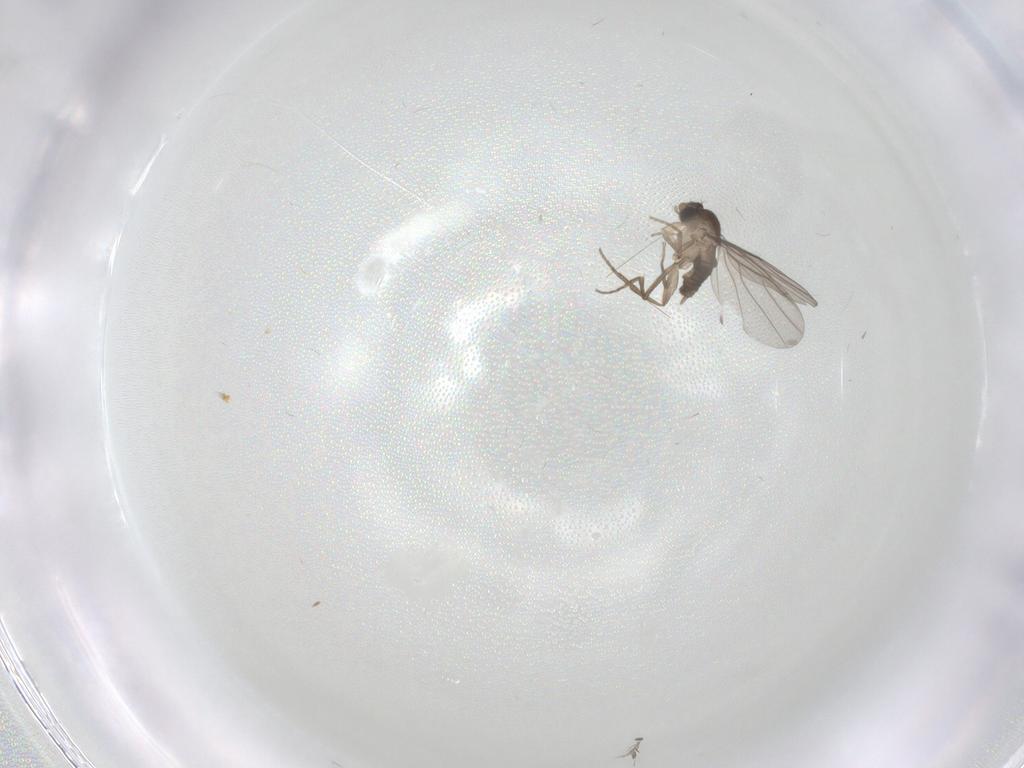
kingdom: Animalia
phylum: Arthropoda
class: Insecta
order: Diptera
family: Phoridae
